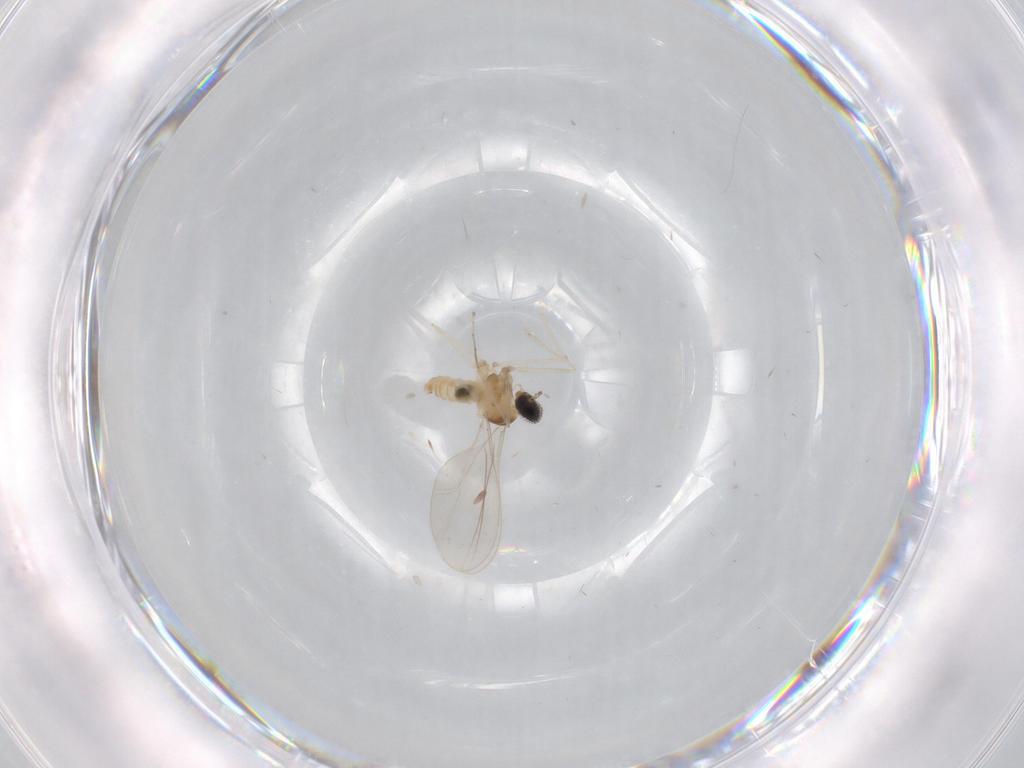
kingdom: Animalia
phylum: Arthropoda
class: Insecta
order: Diptera
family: Cecidomyiidae
